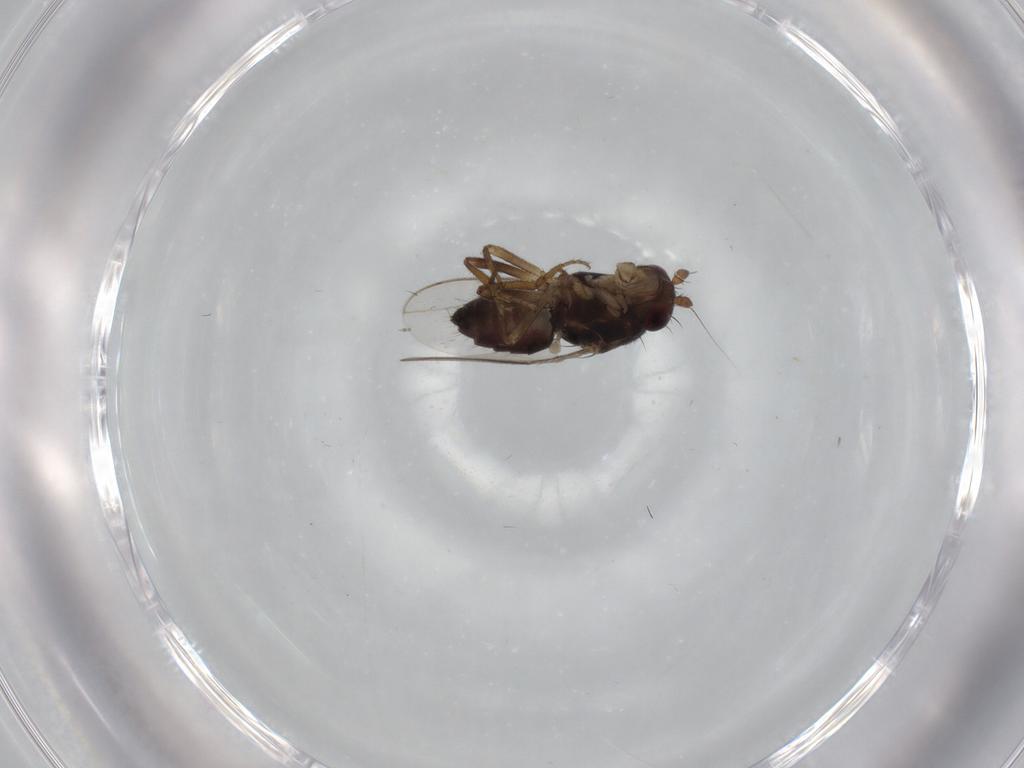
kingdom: Animalia
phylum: Arthropoda
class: Insecta
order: Diptera
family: Sphaeroceridae
